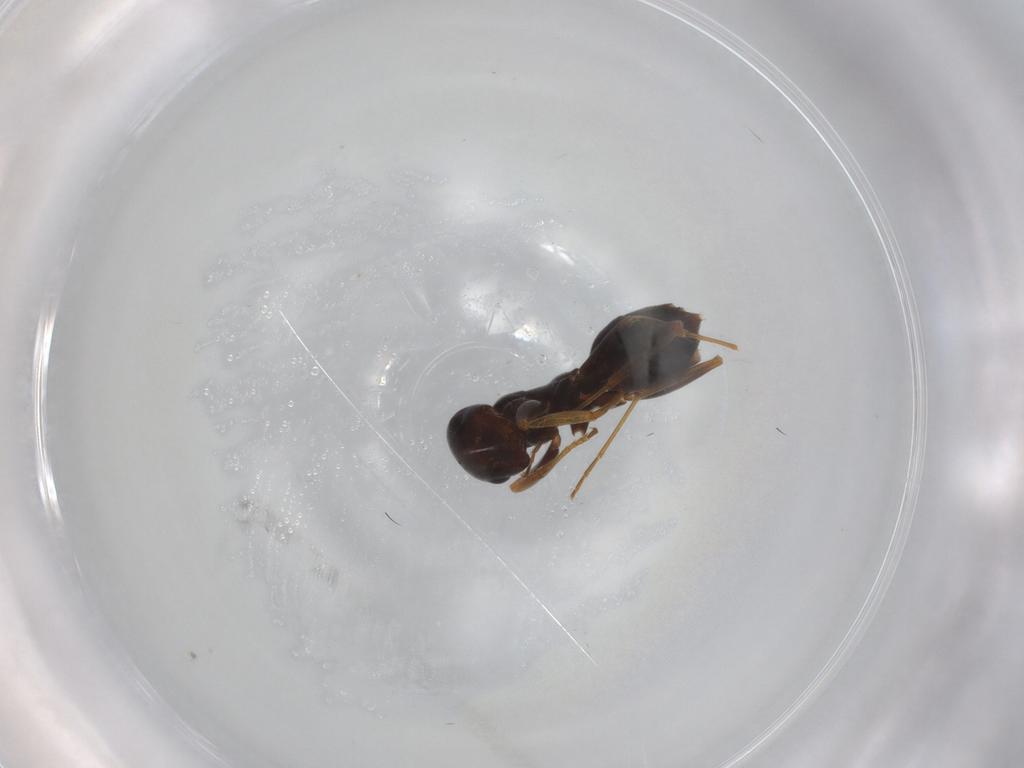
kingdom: Animalia
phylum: Arthropoda
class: Insecta
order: Hymenoptera
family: Formicidae
